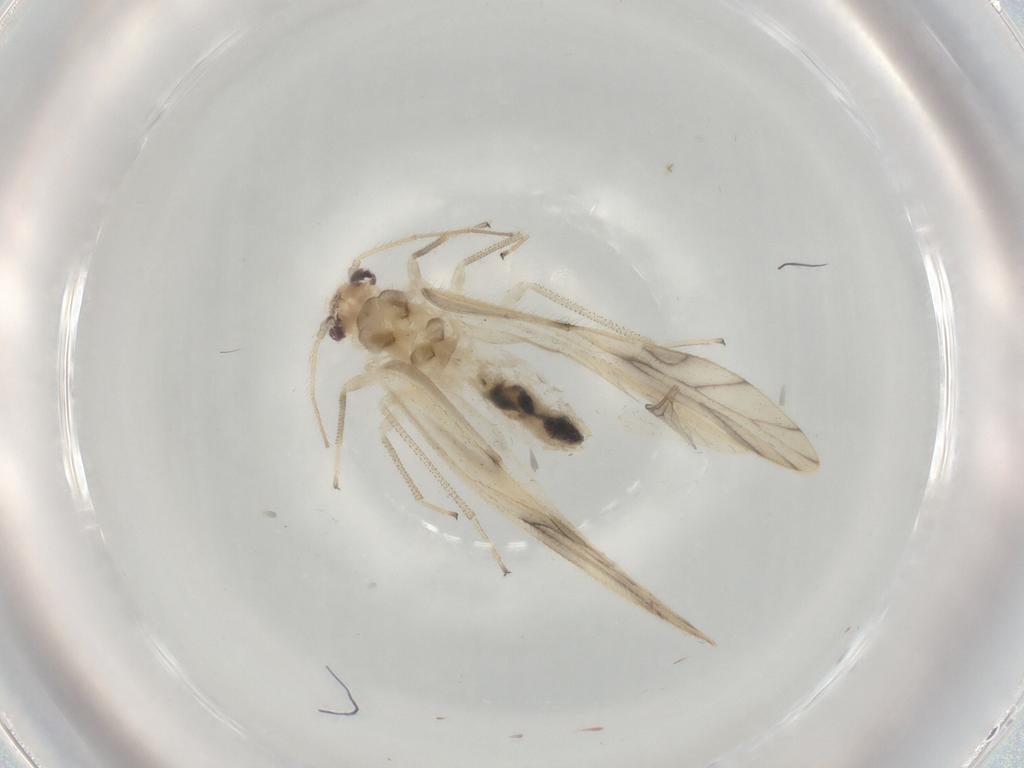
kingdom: Animalia
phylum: Arthropoda
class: Insecta
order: Psocodea
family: Caeciliusidae
